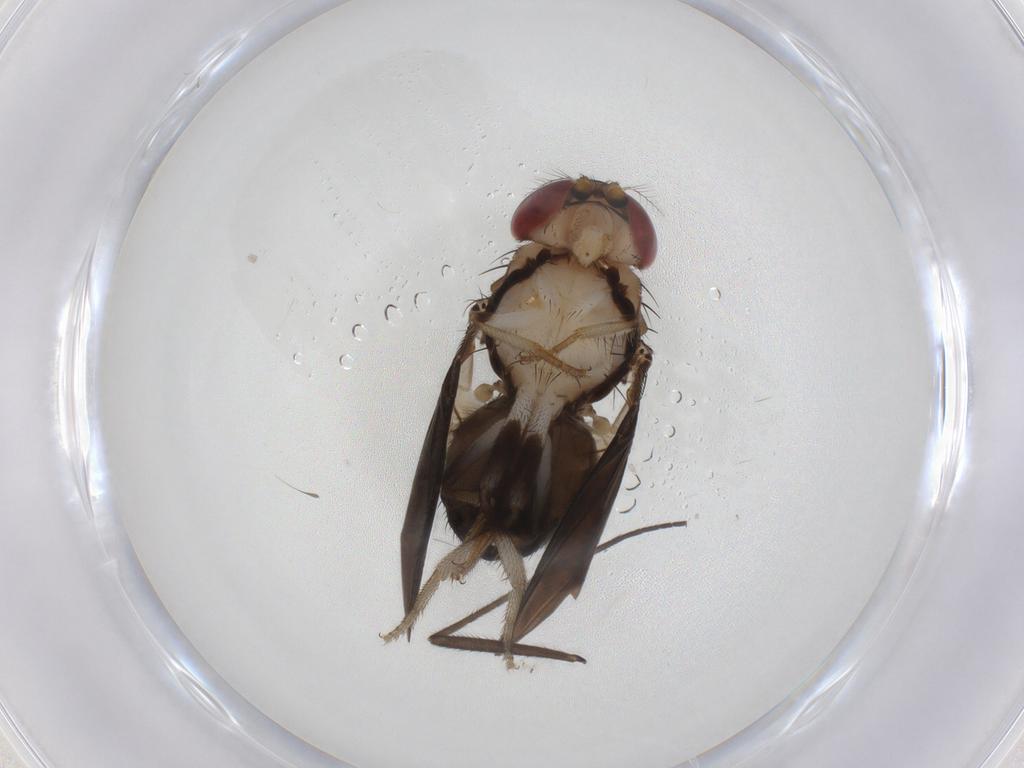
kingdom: Animalia
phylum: Arthropoda
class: Insecta
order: Diptera
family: Drosophilidae
